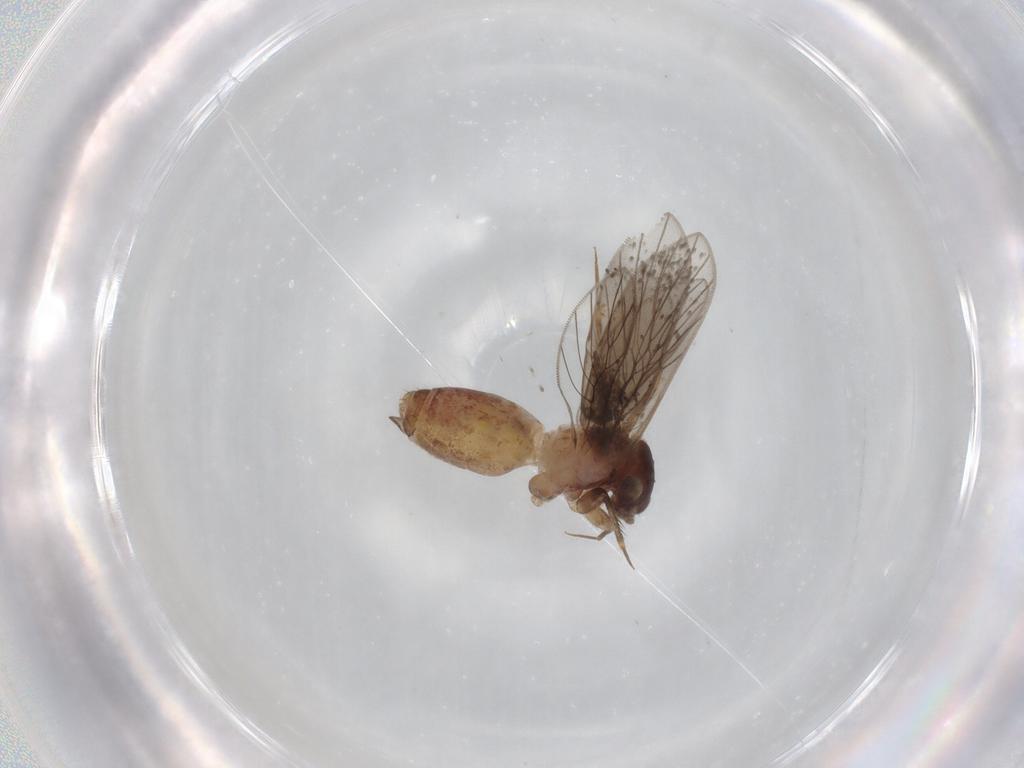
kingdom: Animalia
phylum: Arthropoda
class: Insecta
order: Psocodea
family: Lepidopsocidae
